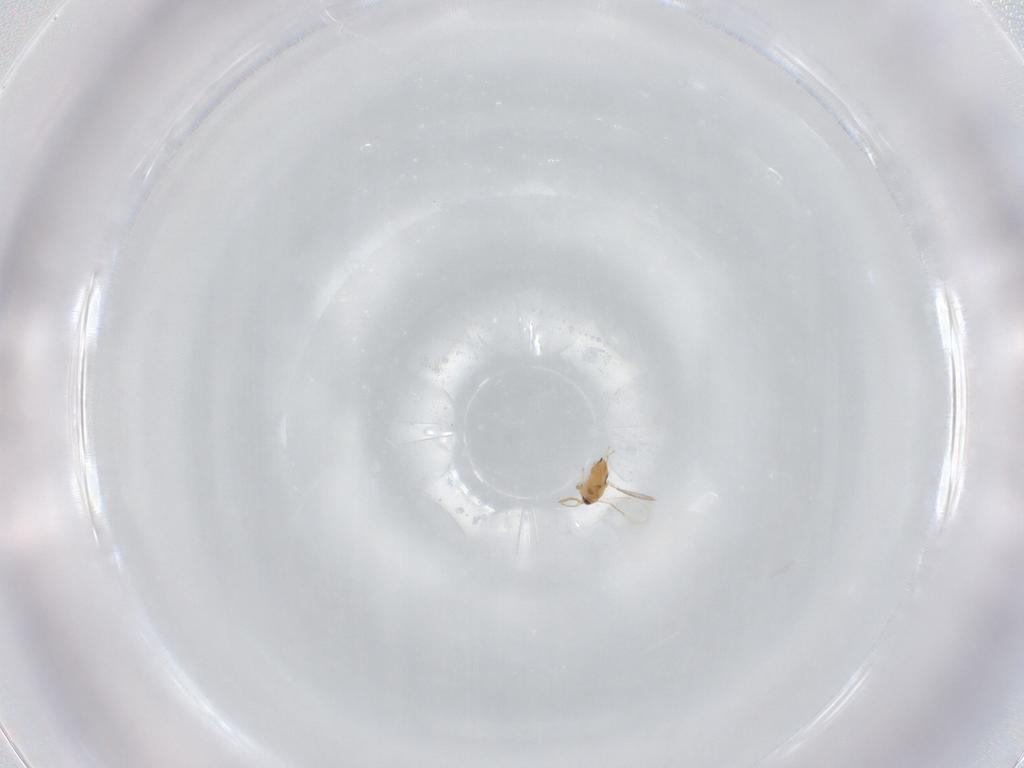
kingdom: Animalia
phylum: Arthropoda
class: Insecta
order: Hymenoptera
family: Aphelinidae
